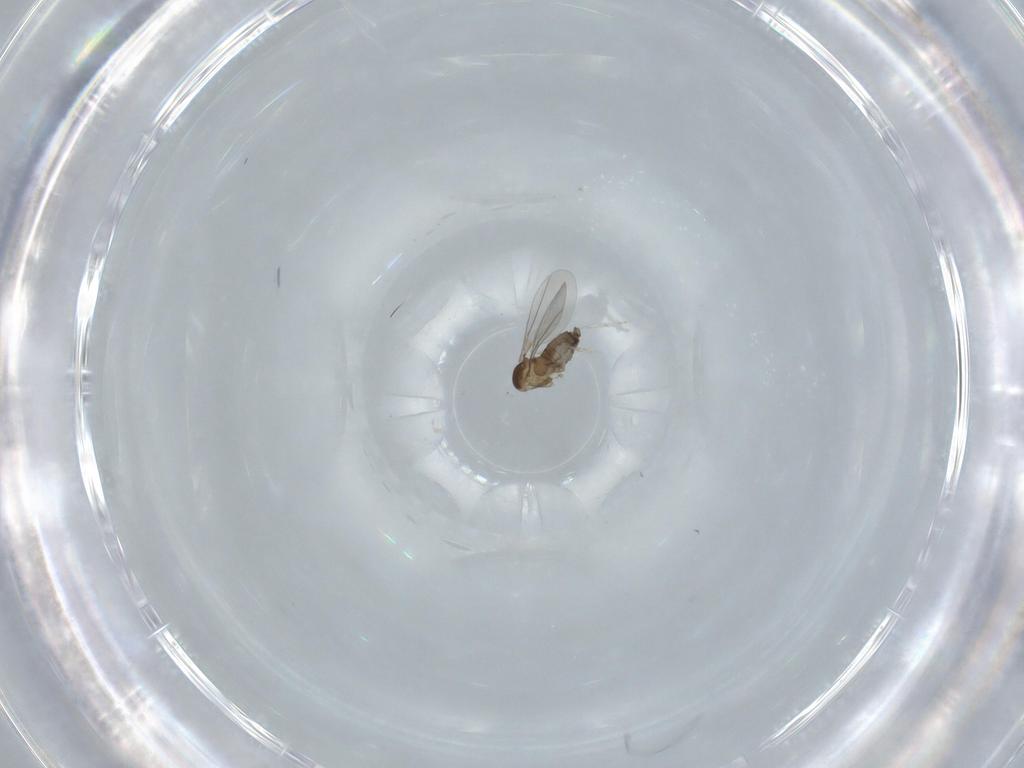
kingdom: Animalia
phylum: Arthropoda
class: Insecta
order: Diptera
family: Cecidomyiidae
